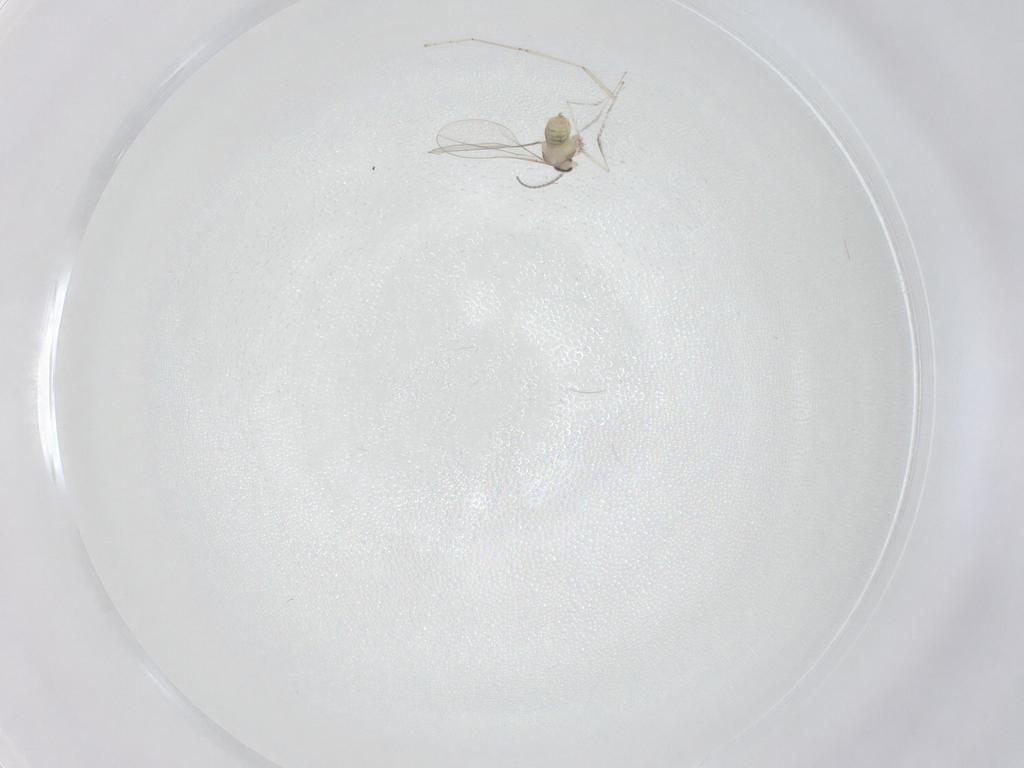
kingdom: Animalia
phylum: Arthropoda
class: Insecta
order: Diptera
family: Cecidomyiidae
